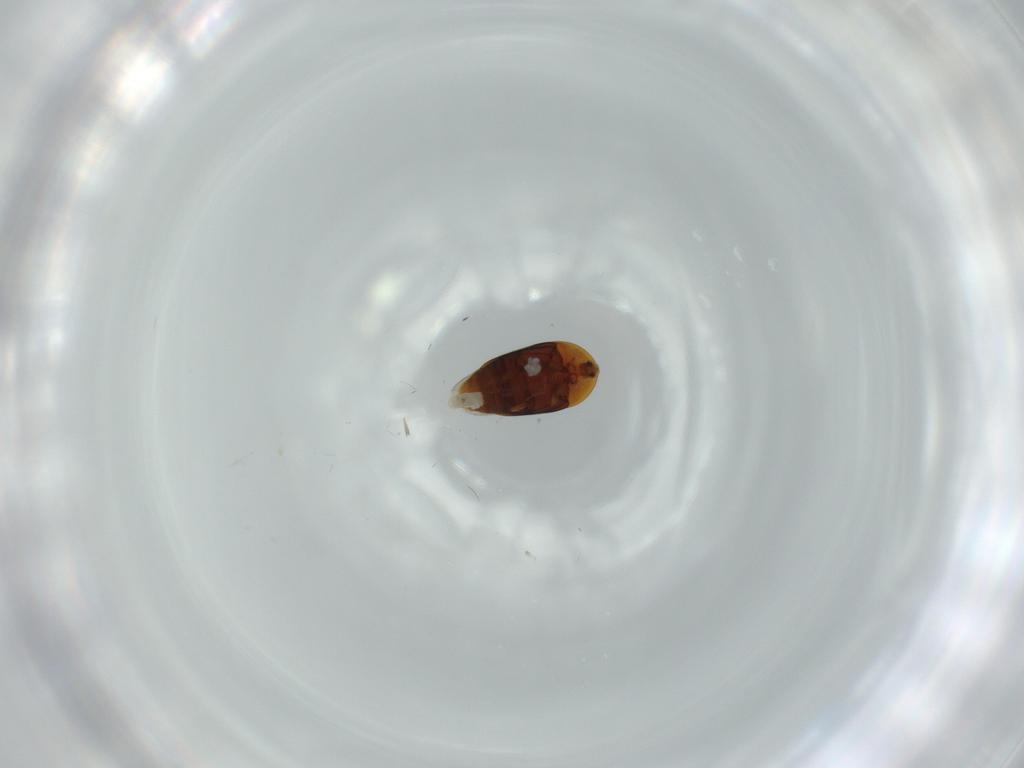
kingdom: Animalia
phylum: Arthropoda
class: Insecta
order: Coleoptera
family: Corylophidae
